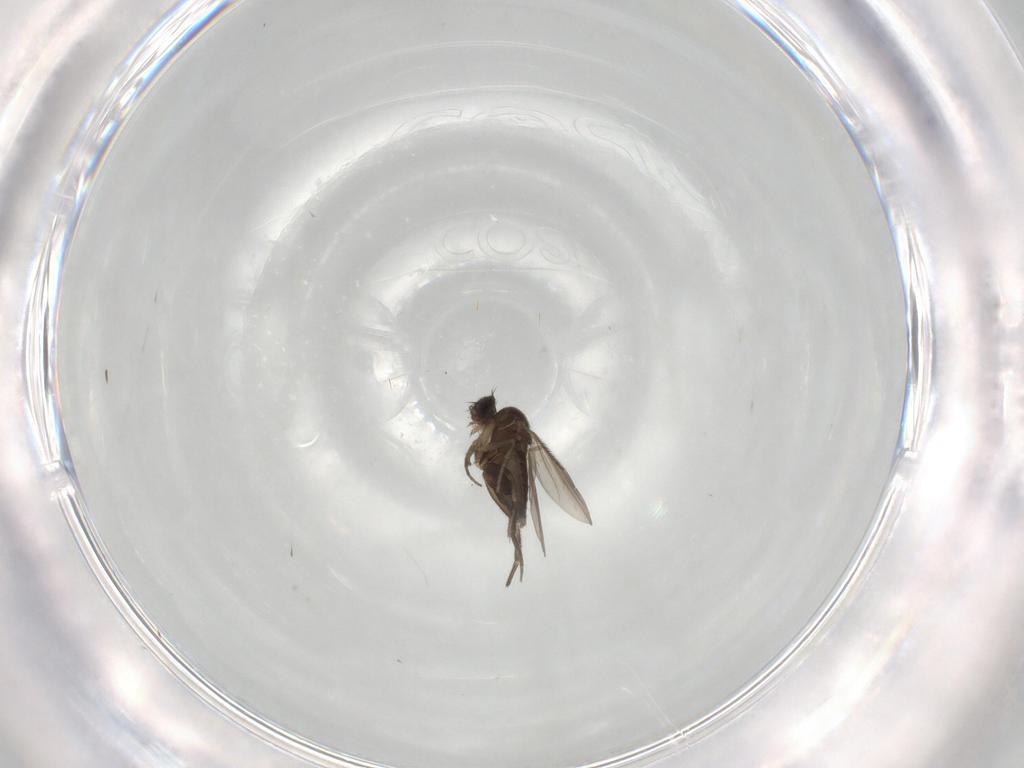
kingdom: Animalia
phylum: Arthropoda
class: Insecta
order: Diptera
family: Phoridae
